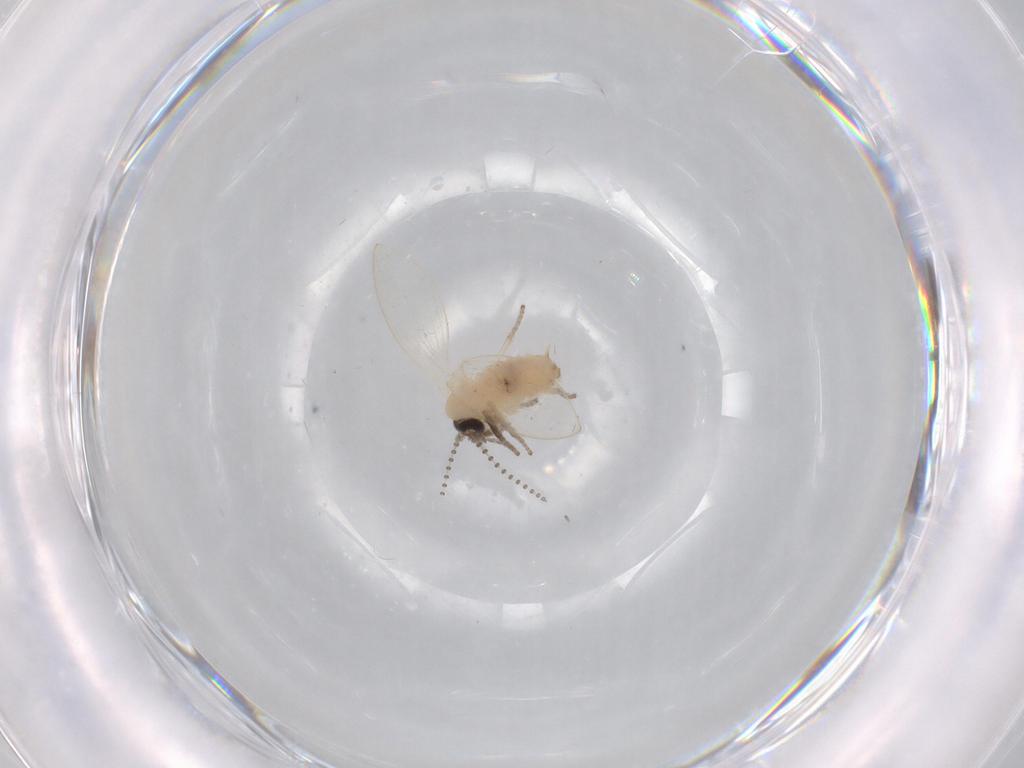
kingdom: Animalia
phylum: Arthropoda
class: Insecta
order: Diptera
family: Psychodidae
